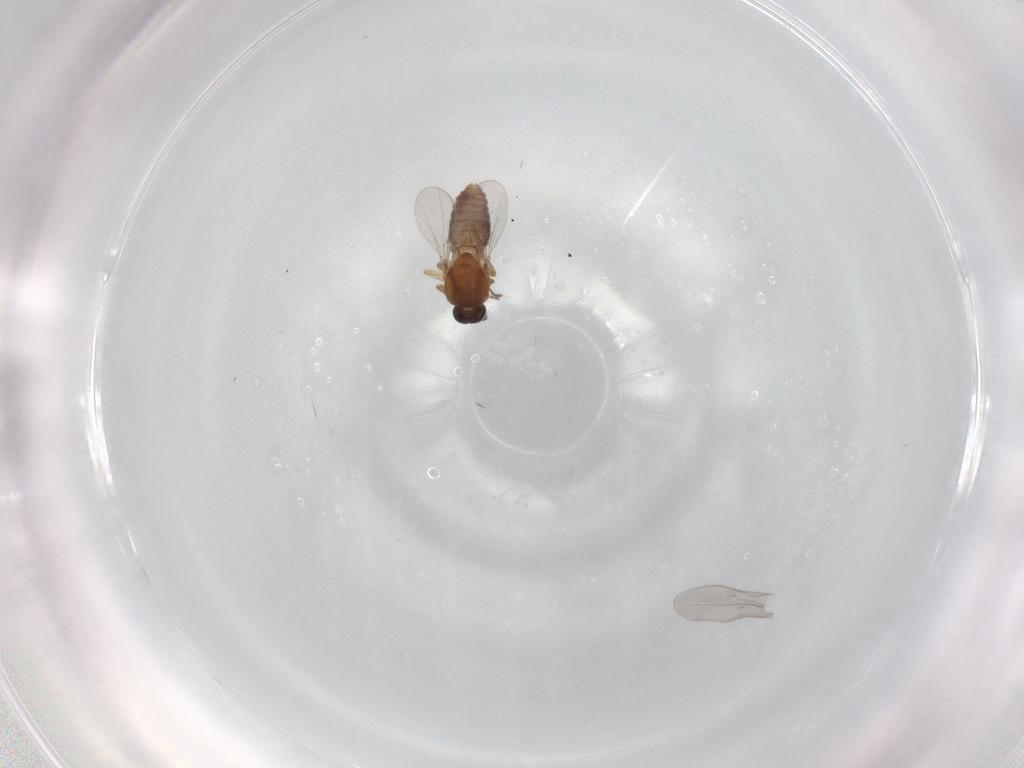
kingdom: Animalia
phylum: Arthropoda
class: Insecta
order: Diptera
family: Ceratopogonidae
